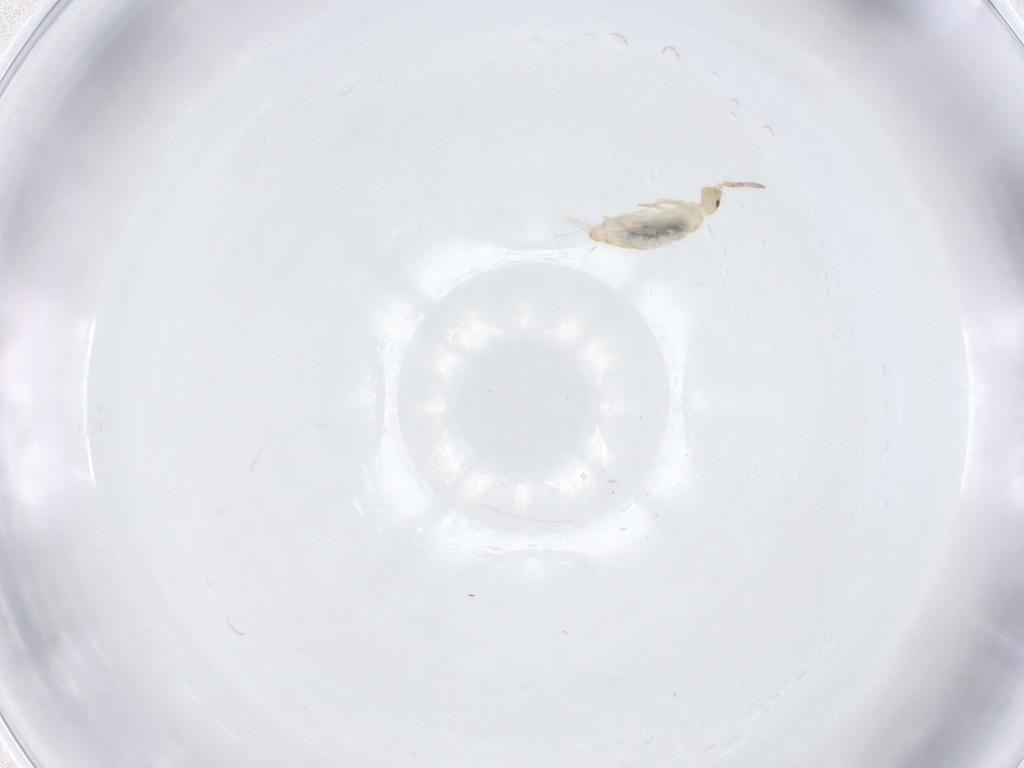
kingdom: Animalia
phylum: Arthropoda
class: Collembola
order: Entomobryomorpha
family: Entomobryidae
